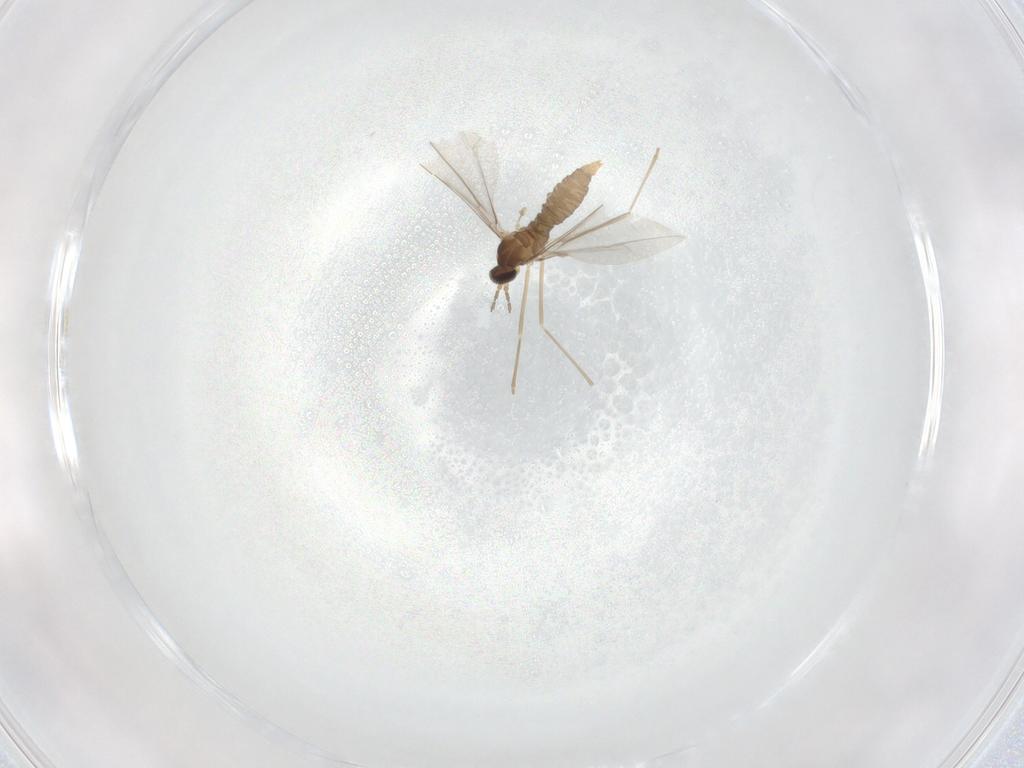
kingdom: Animalia
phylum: Arthropoda
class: Insecta
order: Diptera
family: Cecidomyiidae
